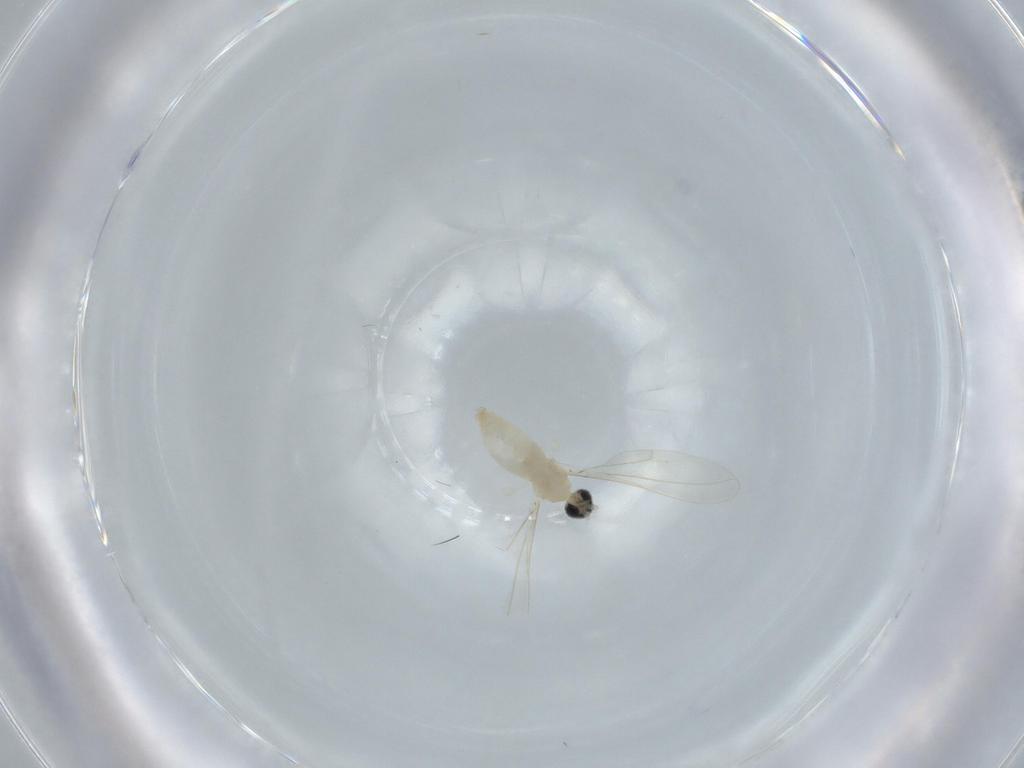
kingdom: Animalia
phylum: Arthropoda
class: Insecta
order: Diptera
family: Cecidomyiidae
